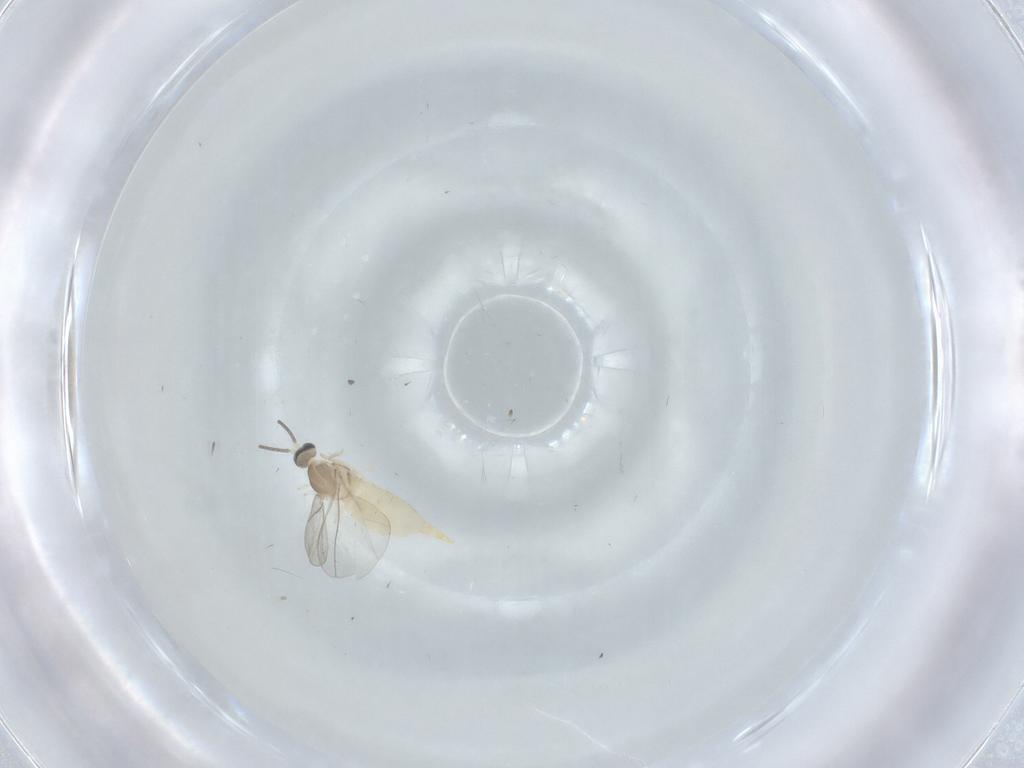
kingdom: Animalia
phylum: Arthropoda
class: Insecta
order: Diptera
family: Cecidomyiidae
